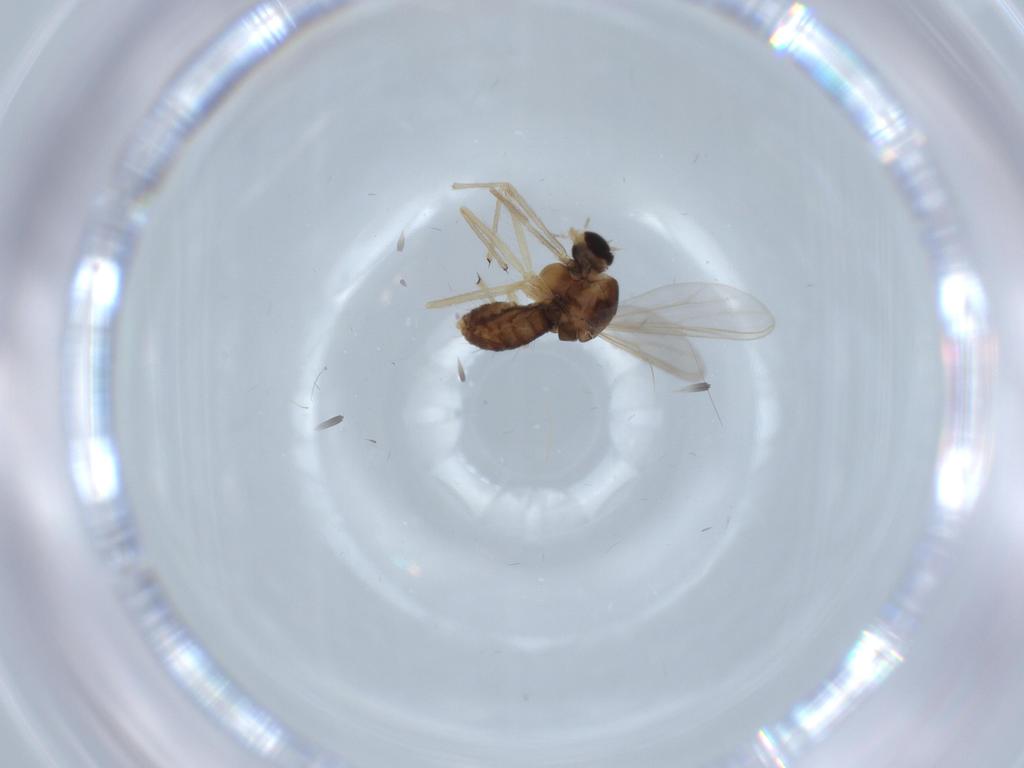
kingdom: Animalia
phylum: Arthropoda
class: Insecta
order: Diptera
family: Chironomidae
